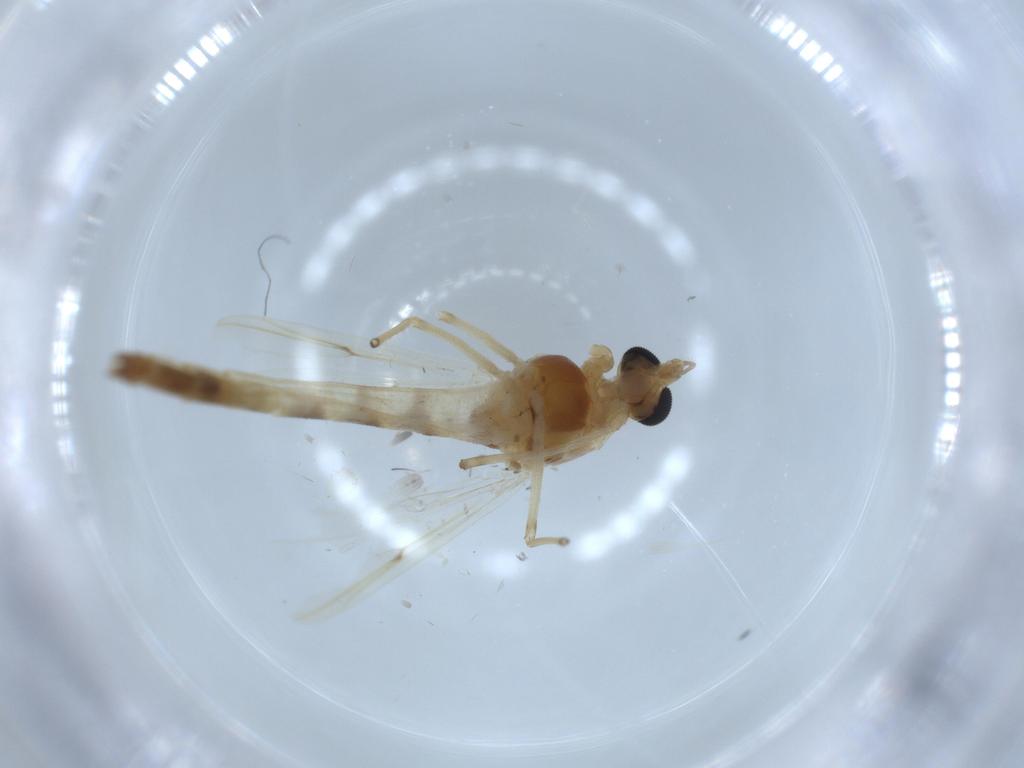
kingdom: Animalia
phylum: Arthropoda
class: Insecta
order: Diptera
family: Chironomidae
